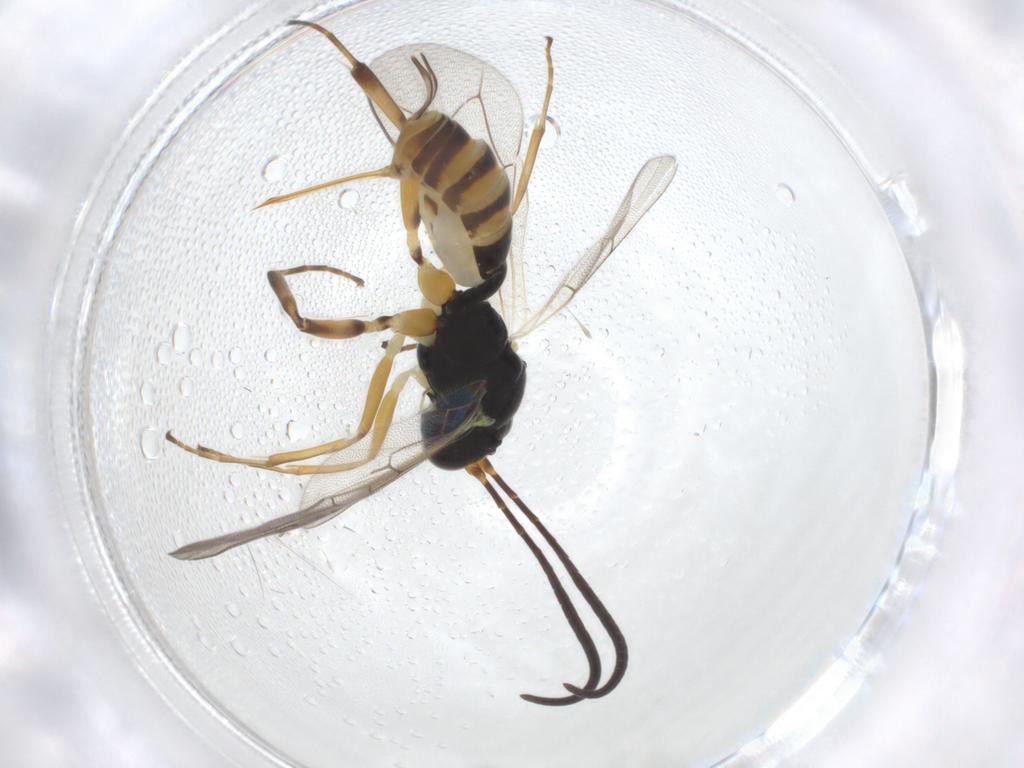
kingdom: Animalia
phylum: Arthropoda
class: Insecta
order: Hymenoptera
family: Ichneumonidae
